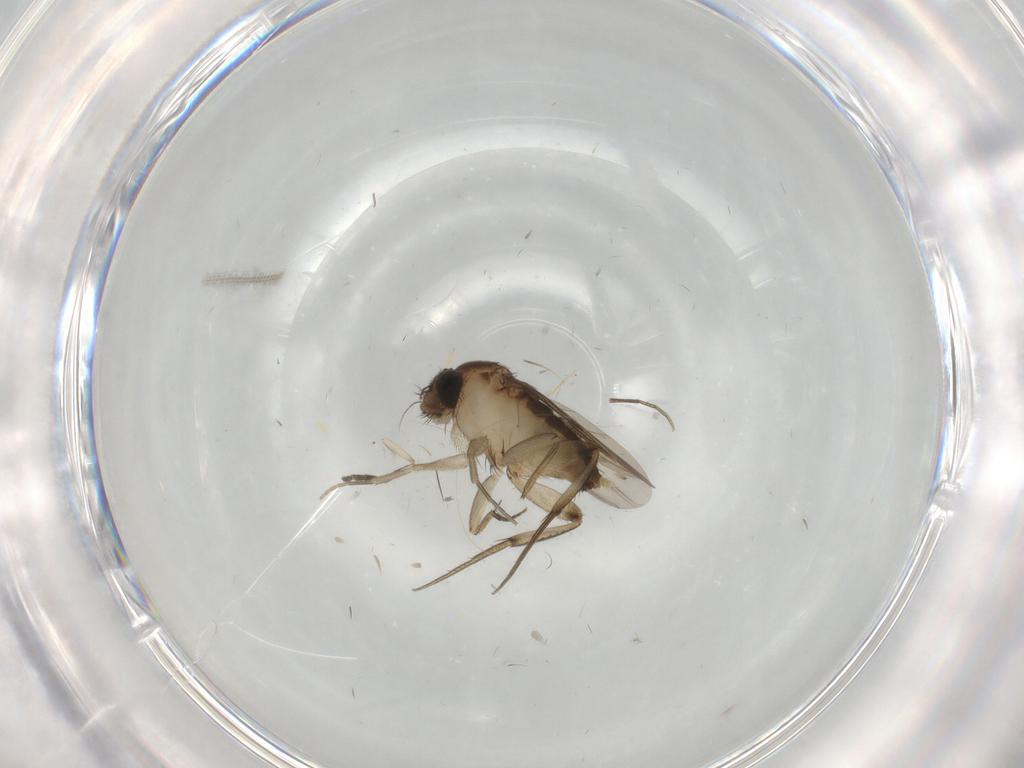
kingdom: Animalia
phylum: Arthropoda
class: Insecta
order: Diptera
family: Phoridae
